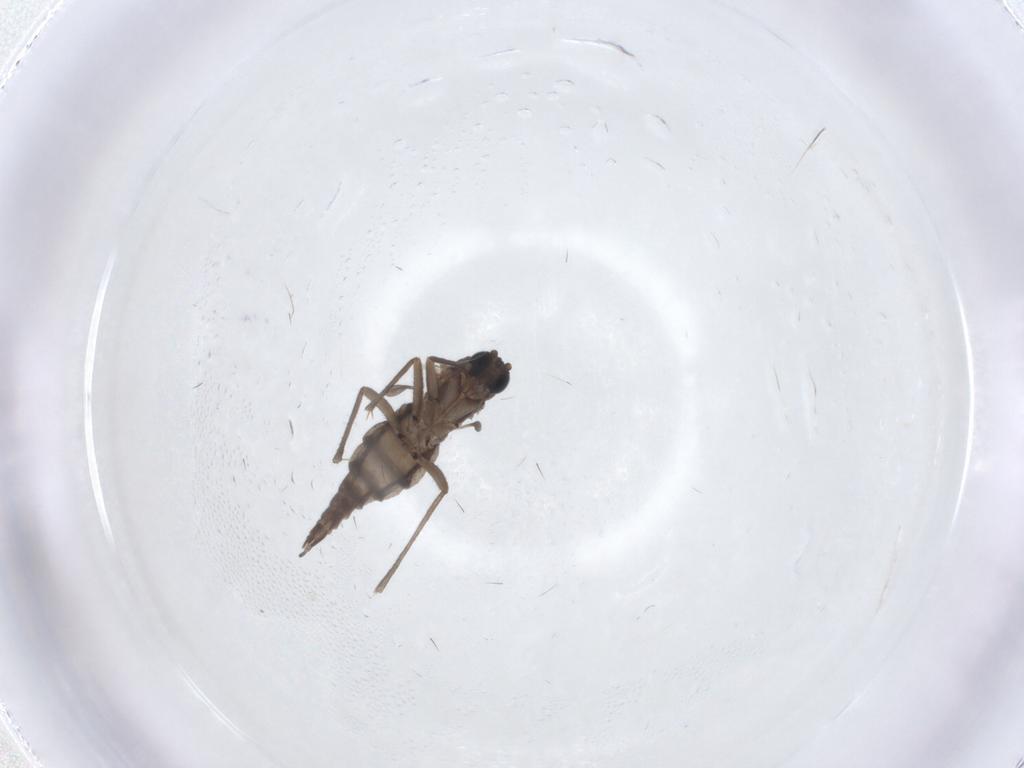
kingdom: Animalia
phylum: Arthropoda
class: Insecta
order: Diptera
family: Sciaridae
